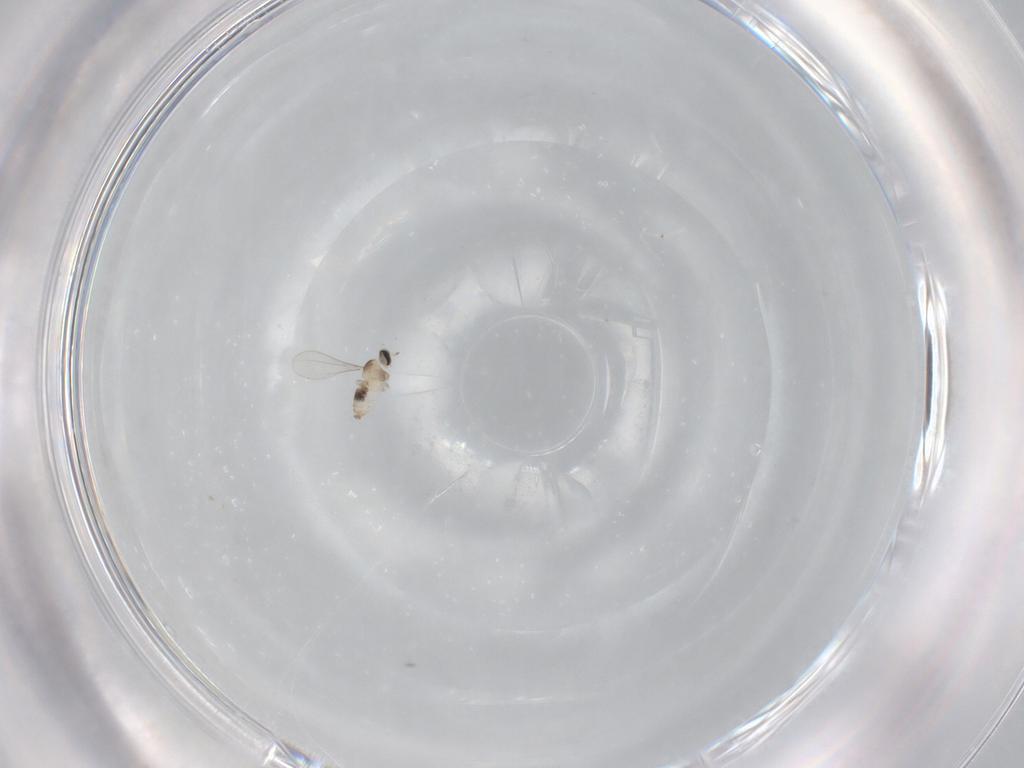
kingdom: Animalia
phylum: Arthropoda
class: Insecta
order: Diptera
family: Cecidomyiidae
